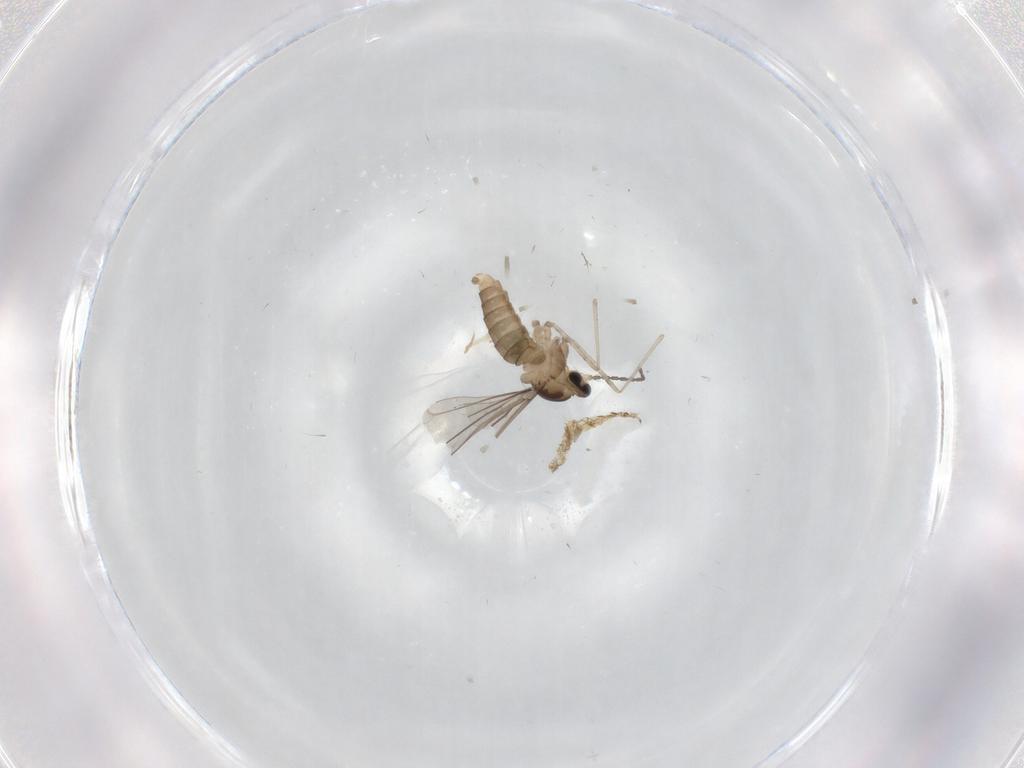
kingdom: Animalia
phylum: Arthropoda
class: Insecta
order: Diptera
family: Cecidomyiidae
